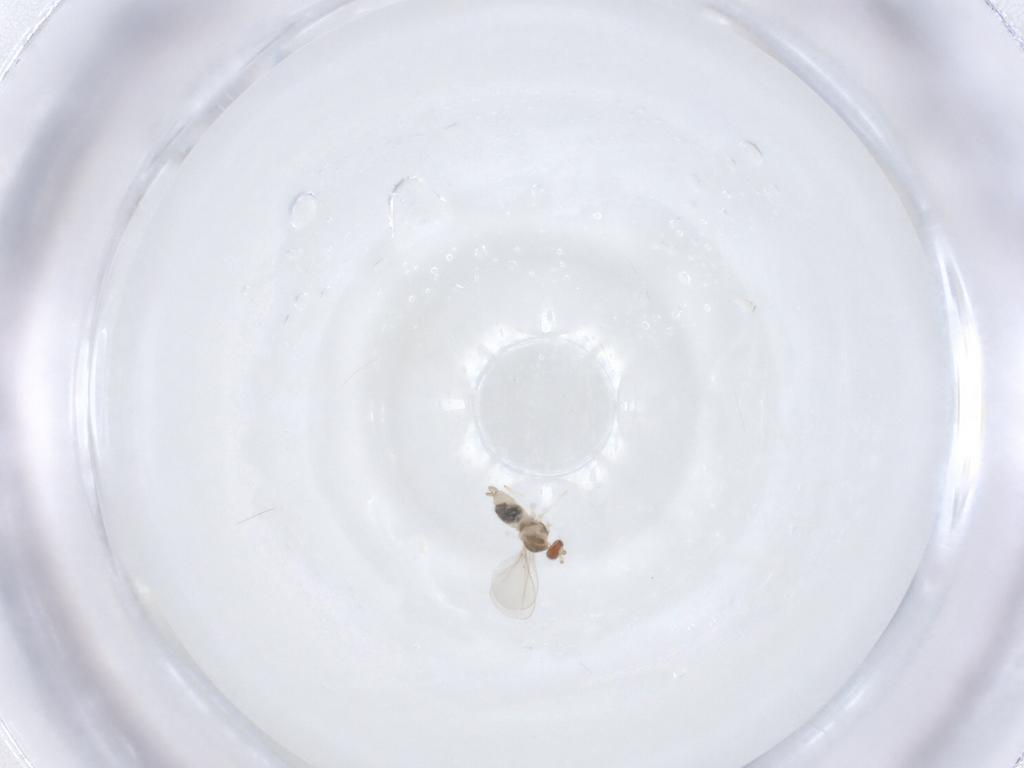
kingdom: Animalia
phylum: Arthropoda
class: Insecta
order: Diptera
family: Cecidomyiidae
